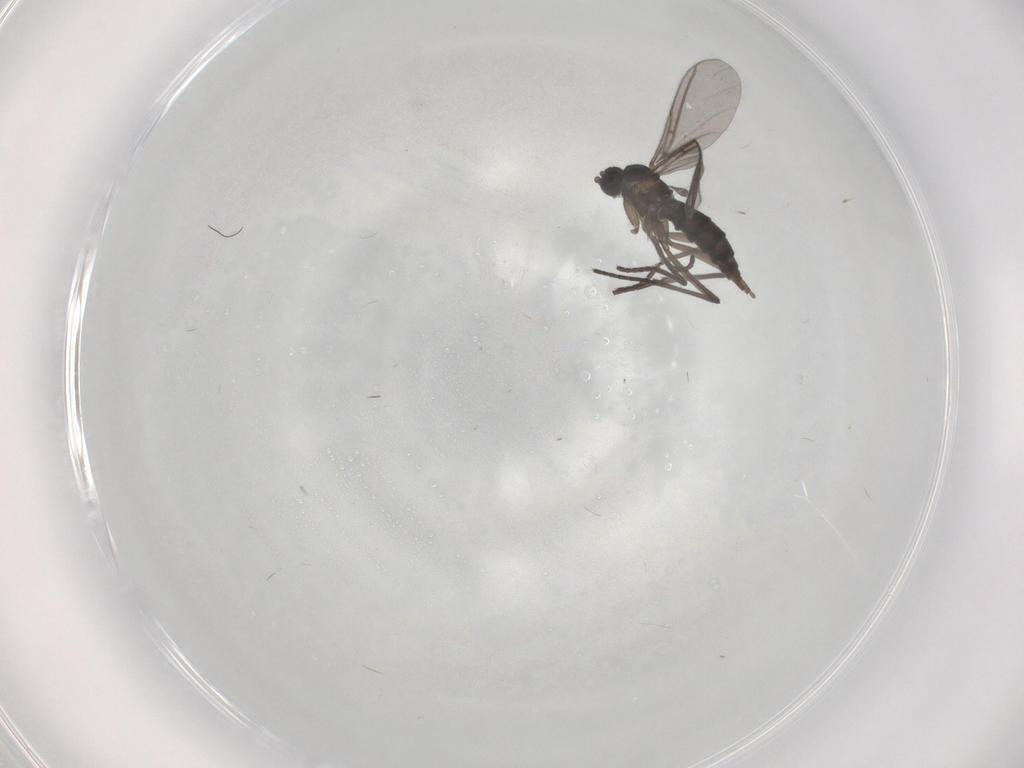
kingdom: Animalia
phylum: Arthropoda
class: Insecta
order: Diptera
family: Sciaridae
